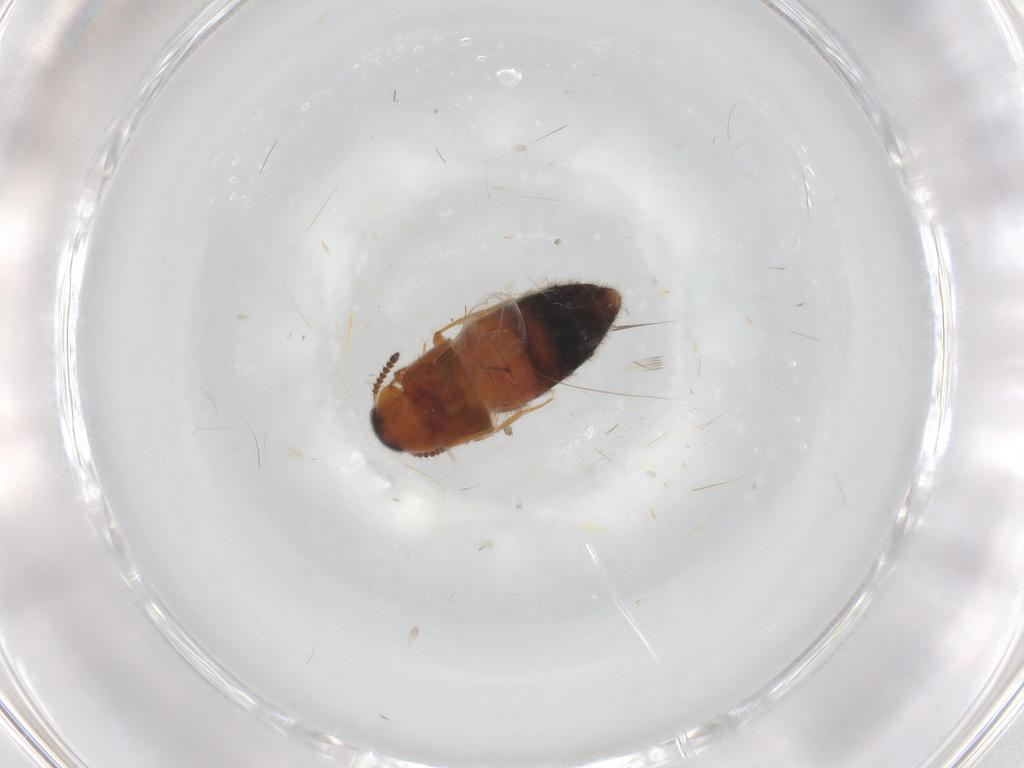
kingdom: Animalia
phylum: Arthropoda
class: Insecta
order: Coleoptera
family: Staphylinidae
